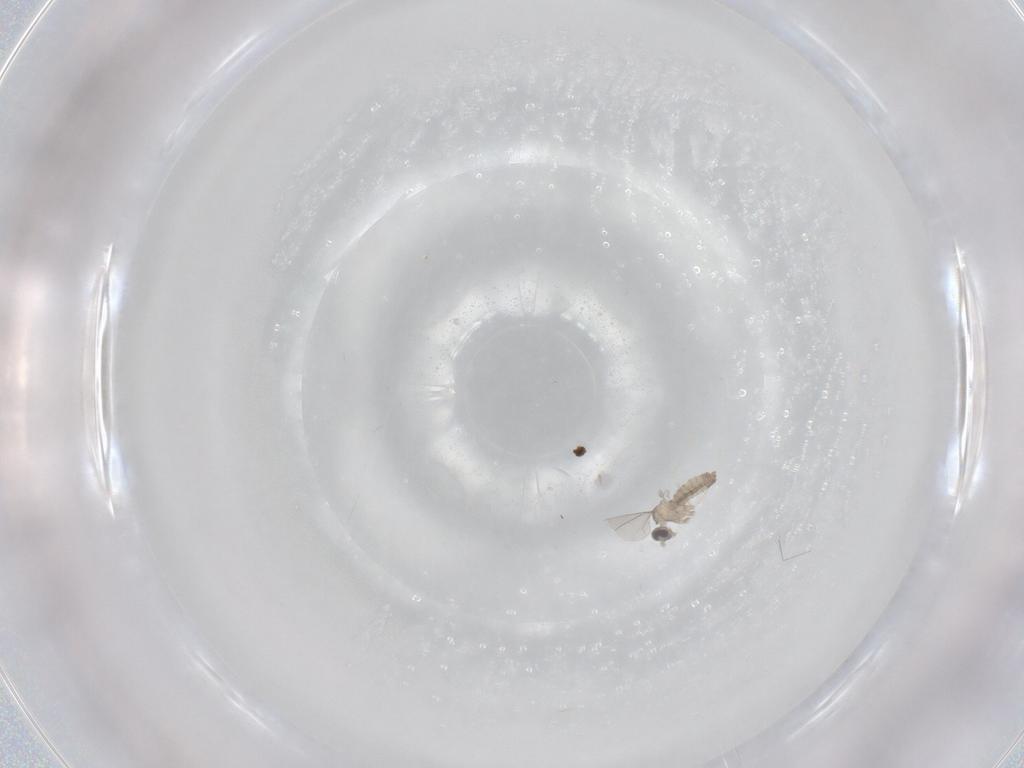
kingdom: Animalia
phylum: Arthropoda
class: Insecta
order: Diptera
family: Cecidomyiidae
